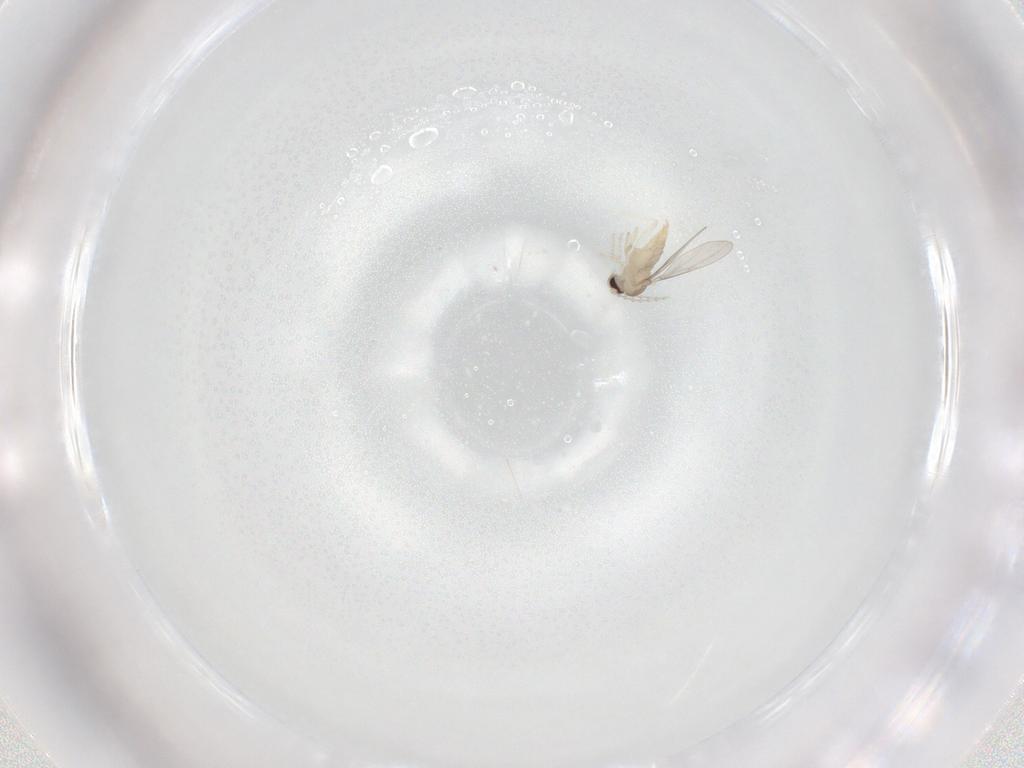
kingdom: Animalia
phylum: Arthropoda
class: Insecta
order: Diptera
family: Cecidomyiidae
